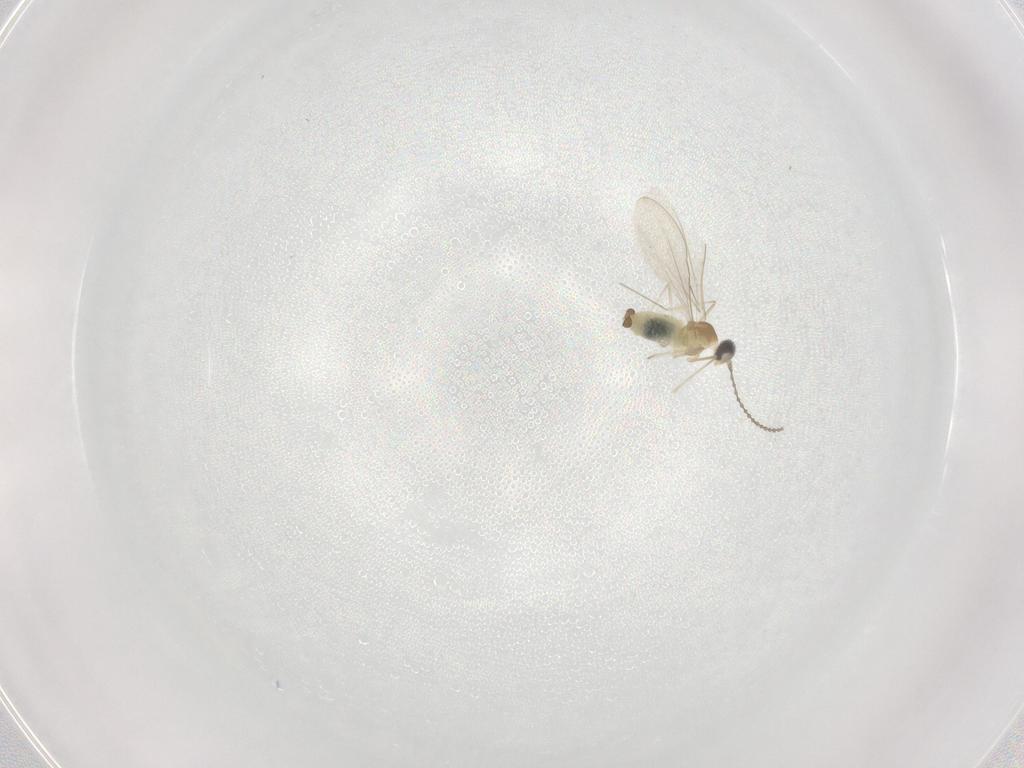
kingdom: Animalia
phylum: Arthropoda
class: Insecta
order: Diptera
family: Cecidomyiidae
